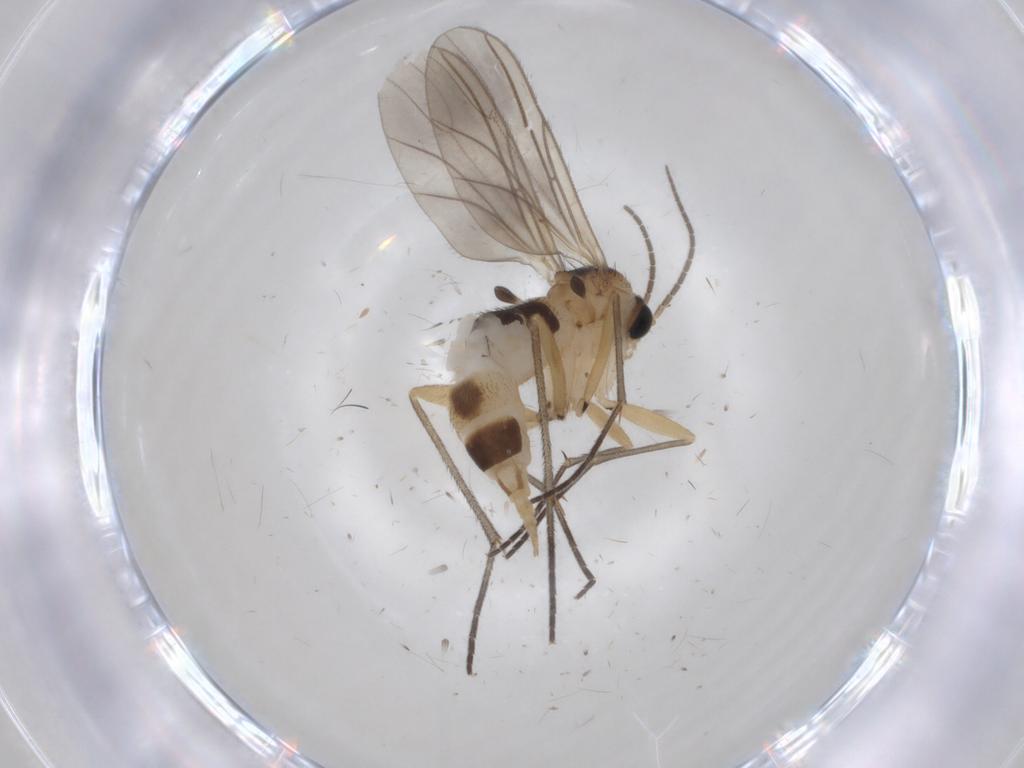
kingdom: Animalia
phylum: Arthropoda
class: Insecta
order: Diptera
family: Sciaridae
